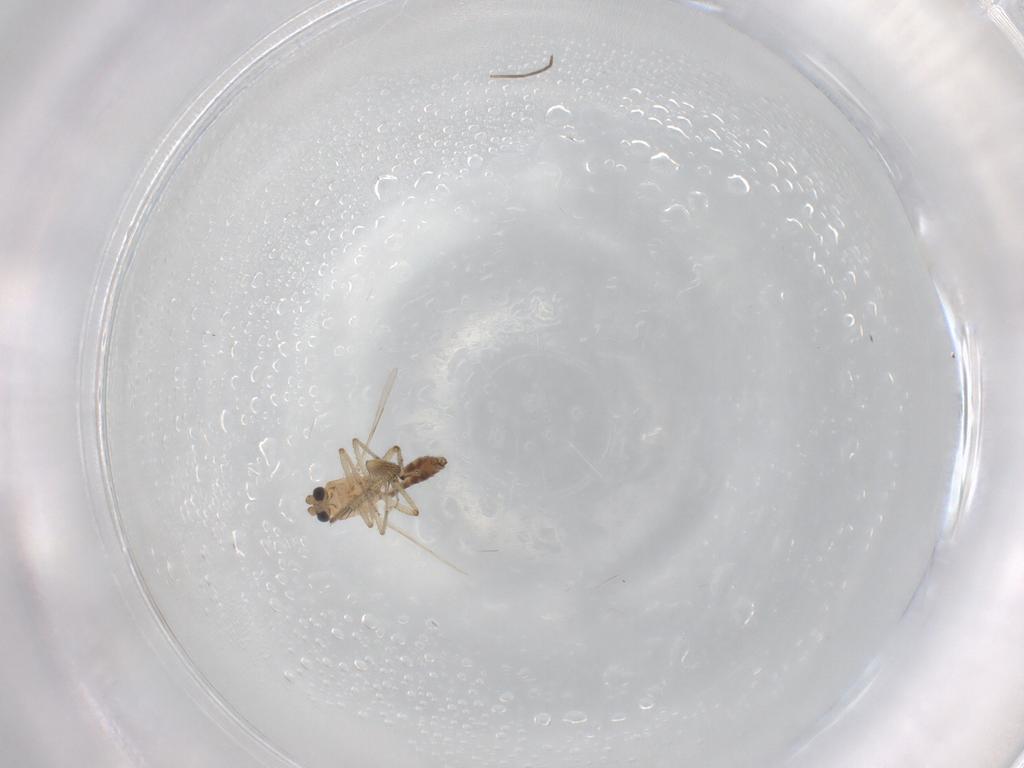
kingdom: Animalia
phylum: Arthropoda
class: Insecta
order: Diptera
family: Ceratopogonidae
